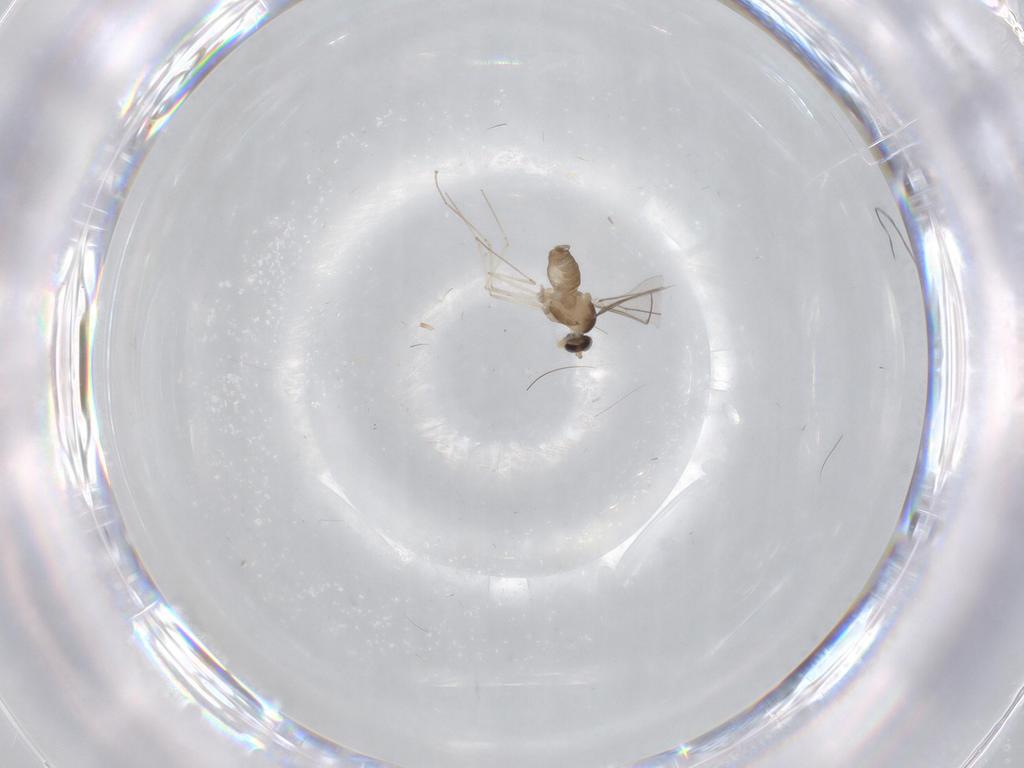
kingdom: Animalia
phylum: Arthropoda
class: Insecta
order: Diptera
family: Cecidomyiidae
